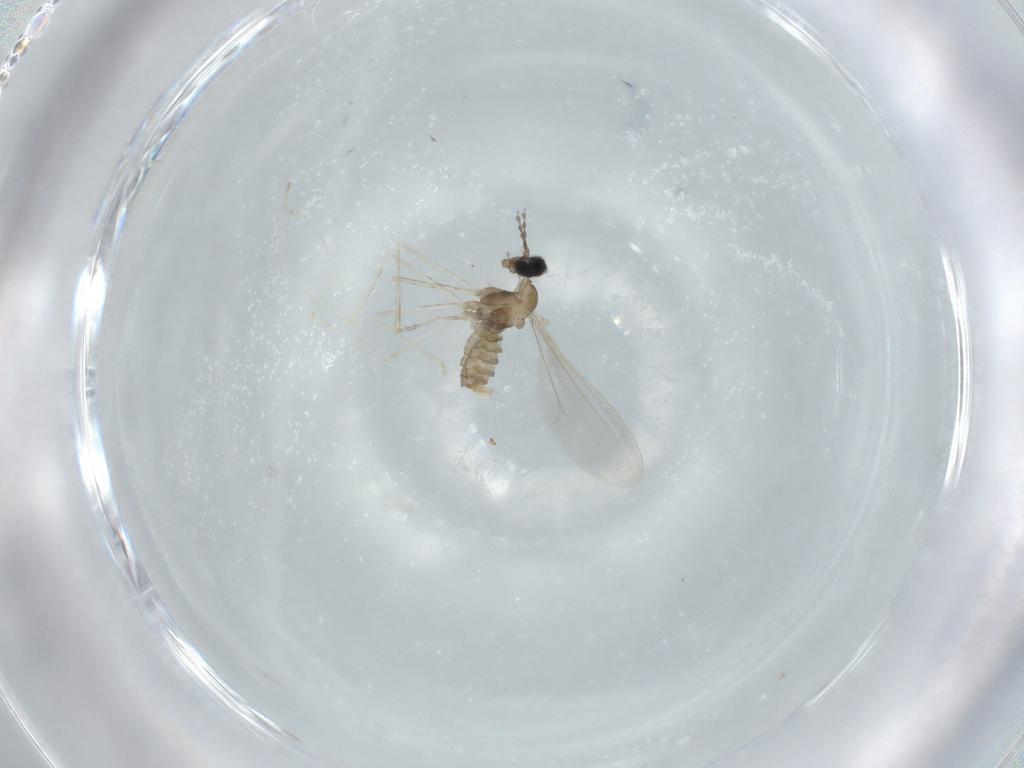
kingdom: Animalia
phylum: Arthropoda
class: Insecta
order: Diptera
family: Cecidomyiidae
